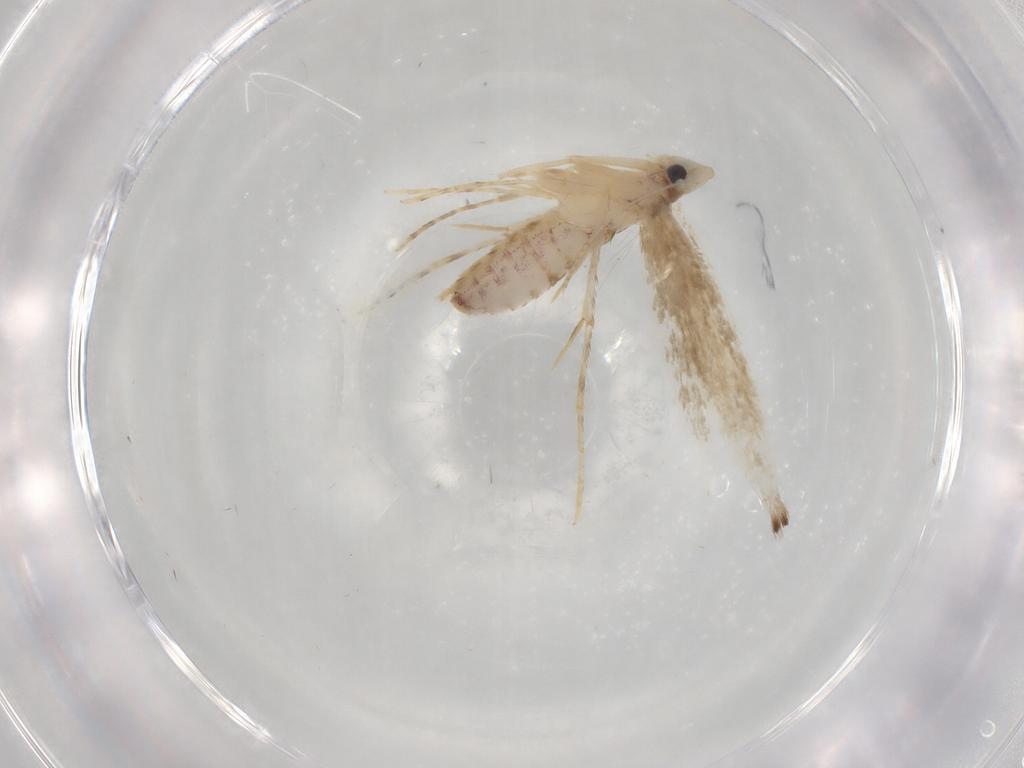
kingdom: Animalia
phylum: Arthropoda
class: Insecta
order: Lepidoptera
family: Gracillariidae
